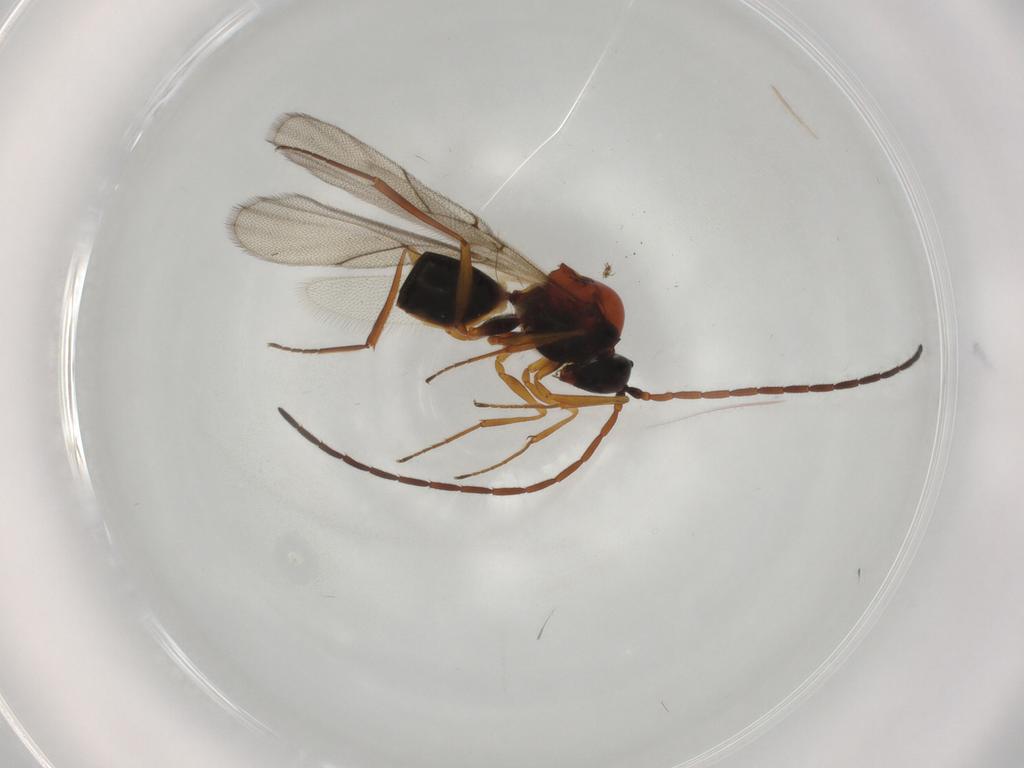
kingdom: Animalia
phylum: Arthropoda
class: Insecta
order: Hymenoptera
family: Figitidae
